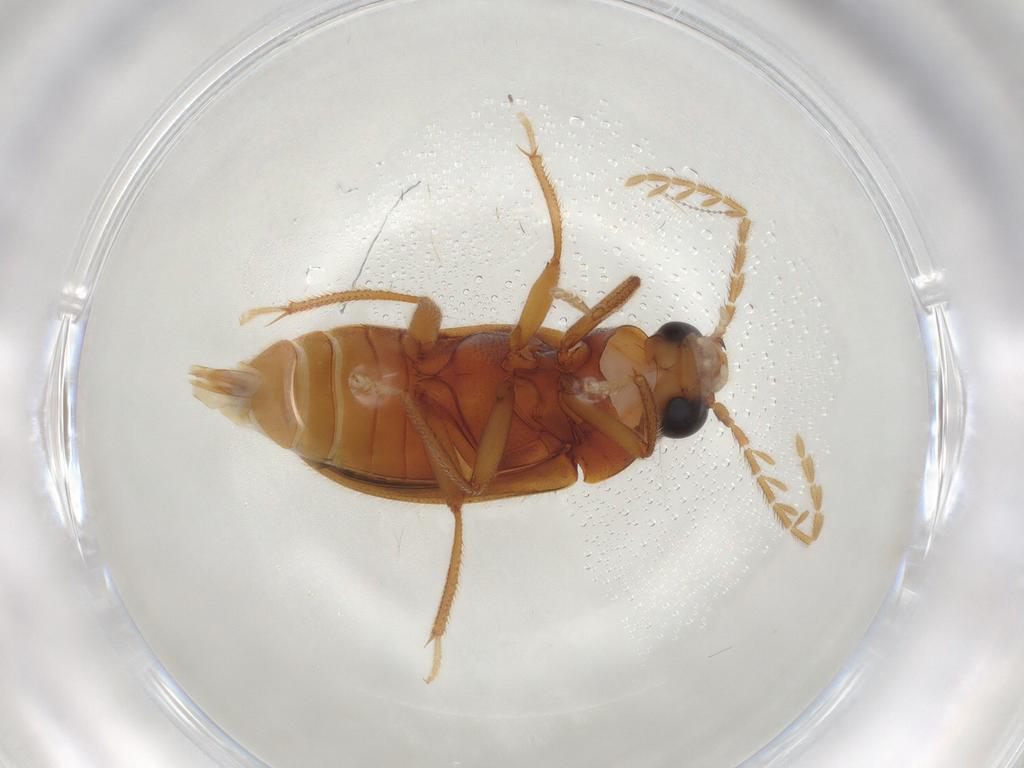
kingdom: Animalia
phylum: Arthropoda
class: Insecta
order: Coleoptera
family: Ptilodactylidae
